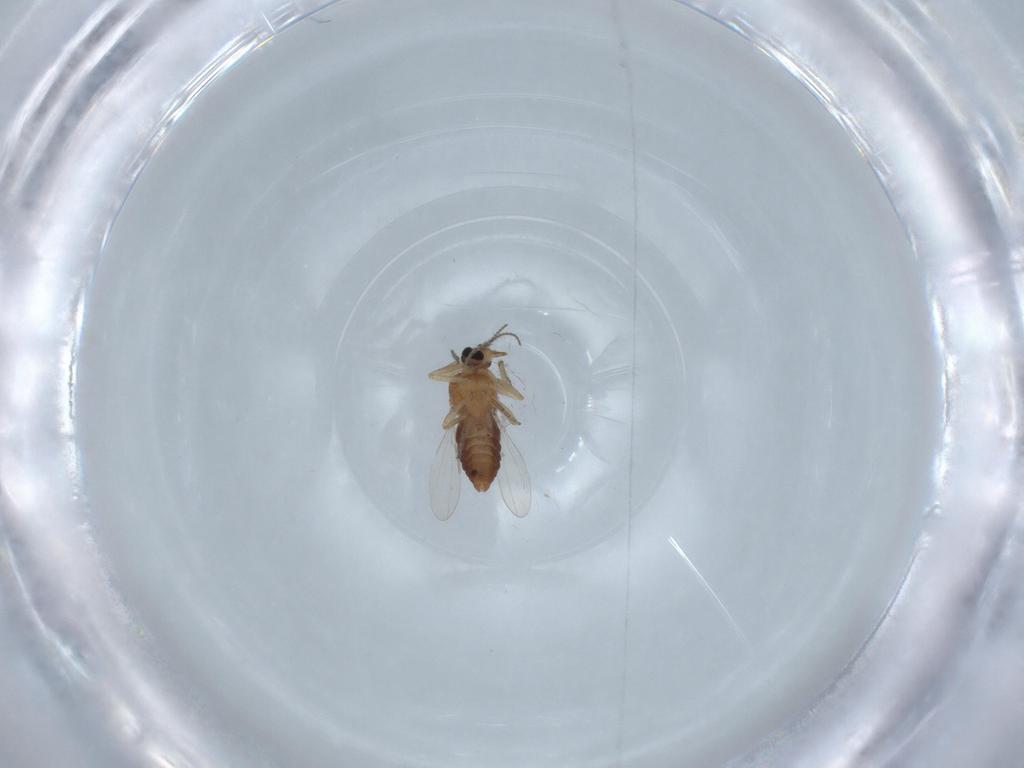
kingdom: Animalia
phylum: Arthropoda
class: Insecta
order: Diptera
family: Ceratopogonidae
